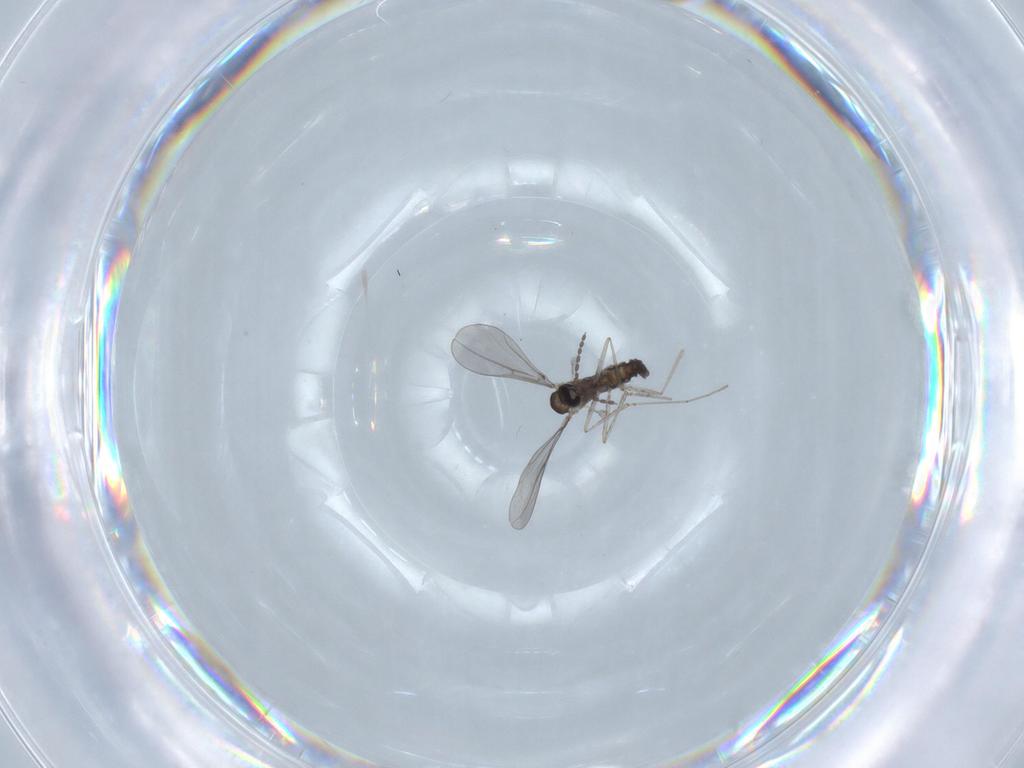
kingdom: Animalia
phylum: Arthropoda
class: Insecta
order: Diptera
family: Cecidomyiidae
